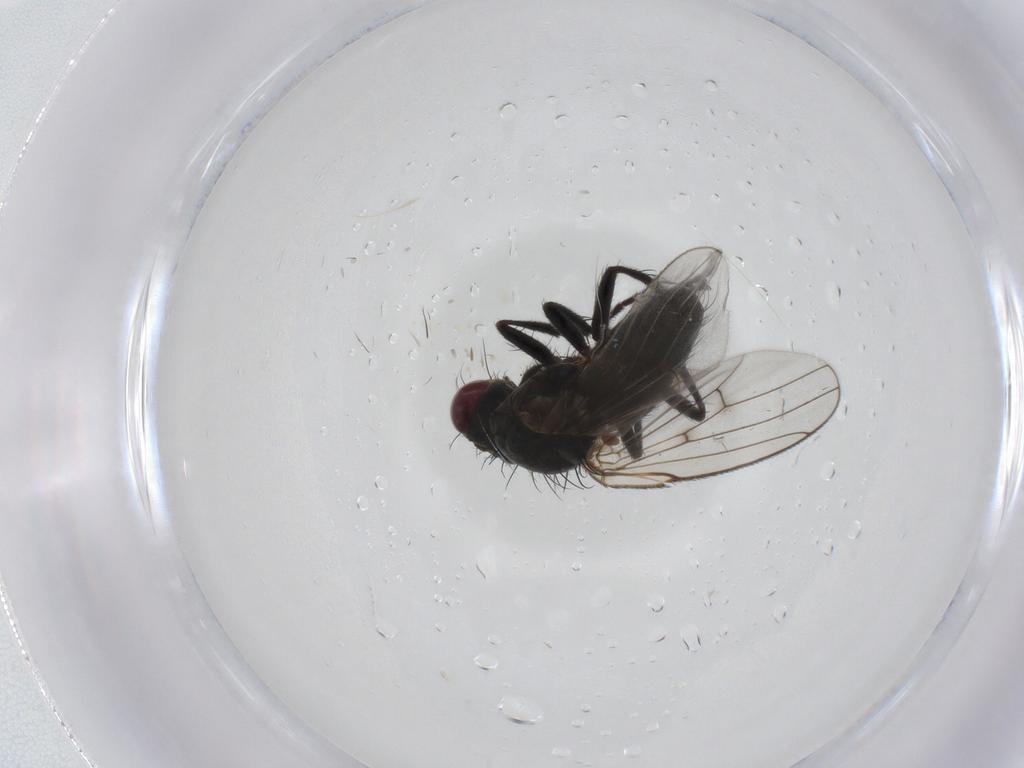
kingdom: Animalia
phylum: Arthropoda
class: Insecta
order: Diptera
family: Muscidae
